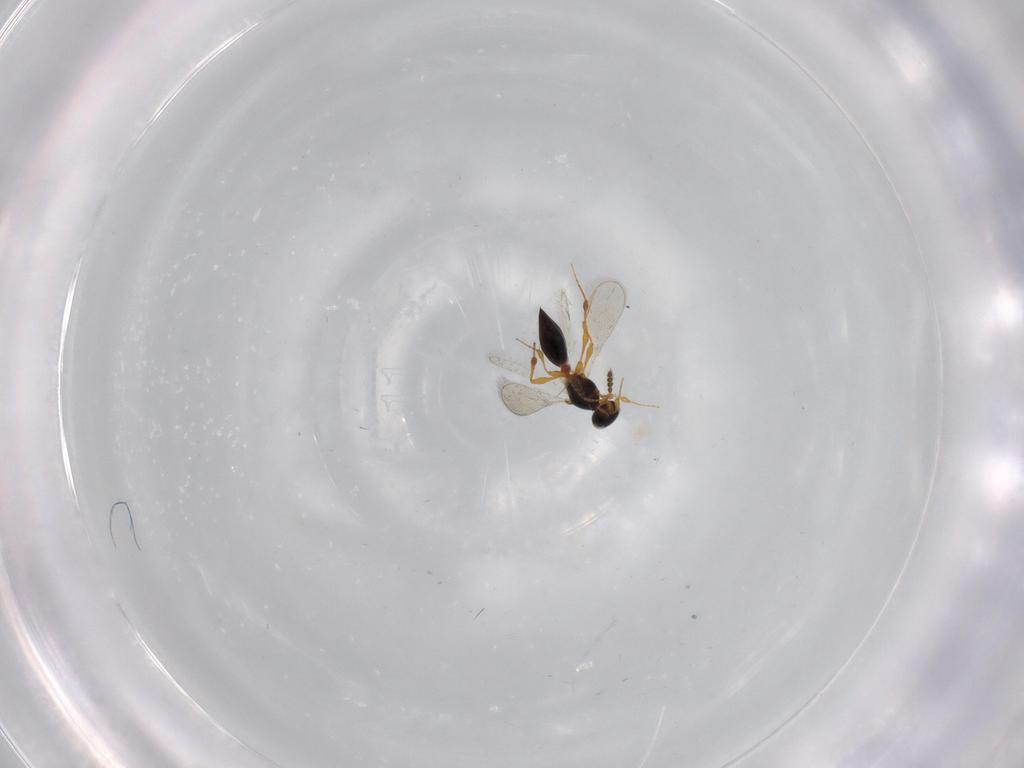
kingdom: Animalia
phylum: Arthropoda
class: Insecta
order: Hymenoptera
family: Platygastridae
